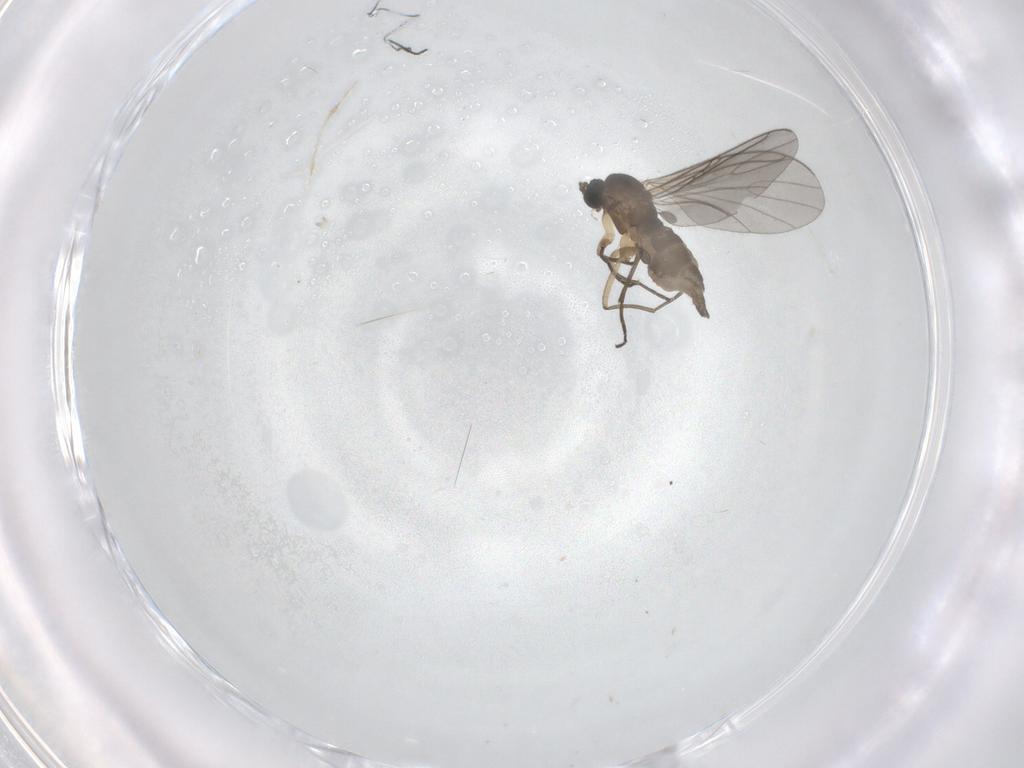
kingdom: Animalia
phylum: Arthropoda
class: Insecta
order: Diptera
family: Sciaridae
